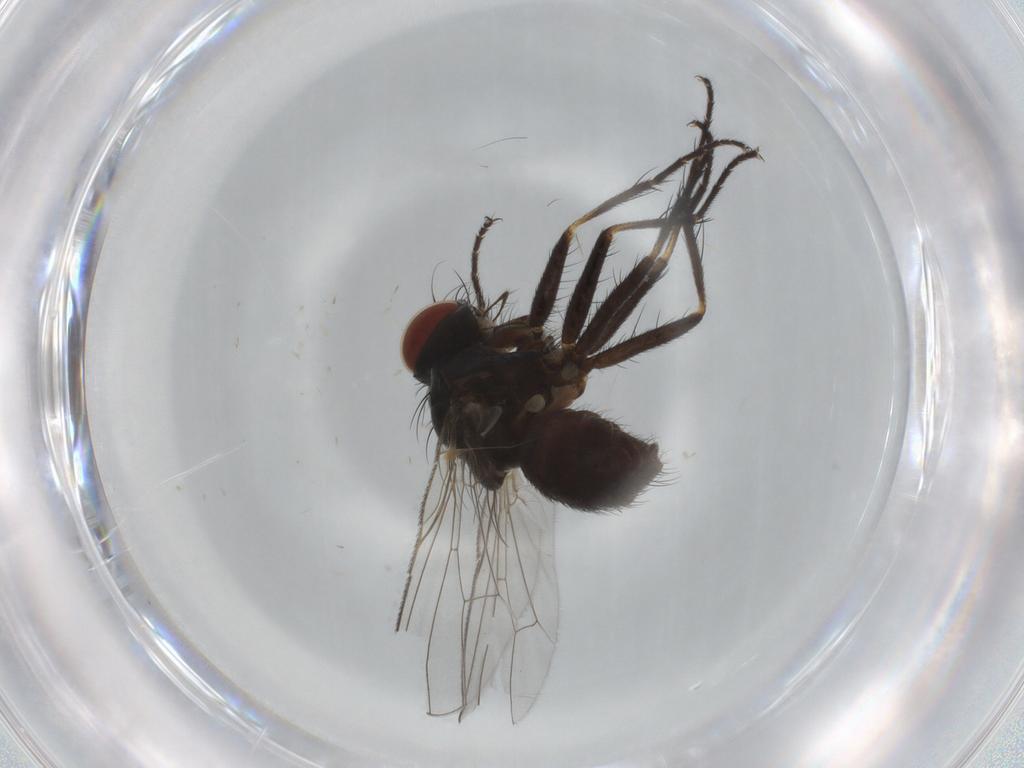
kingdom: Animalia
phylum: Arthropoda
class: Insecta
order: Diptera
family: Muscidae
